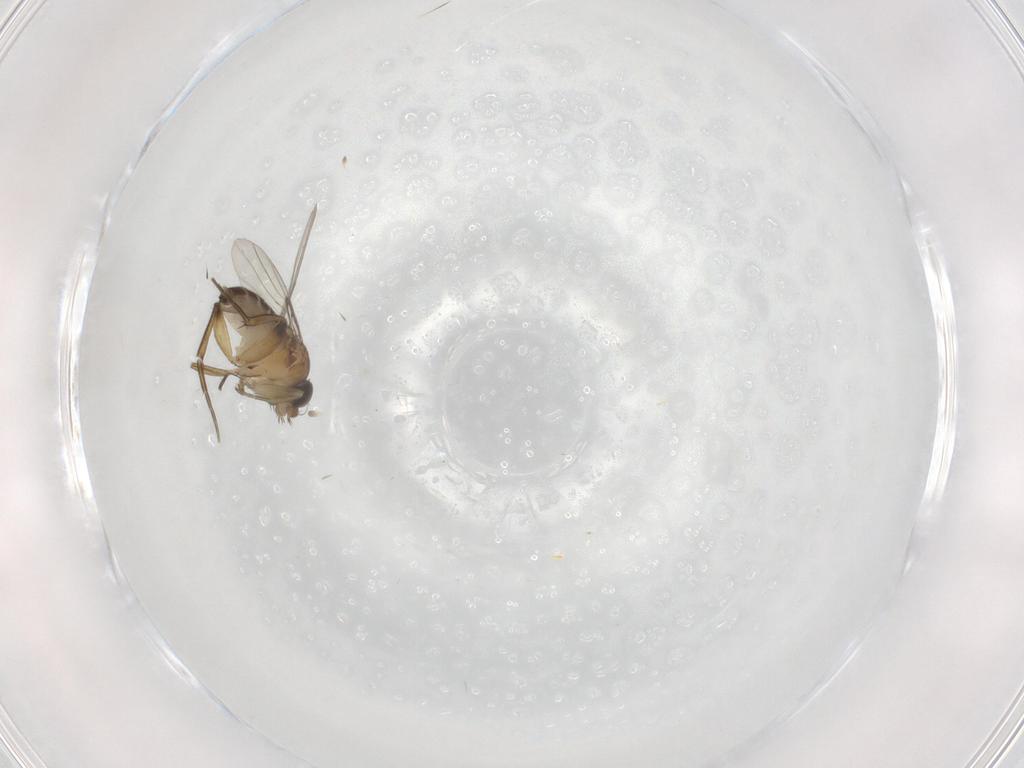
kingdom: Animalia
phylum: Arthropoda
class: Insecta
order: Diptera
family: Phoridae
